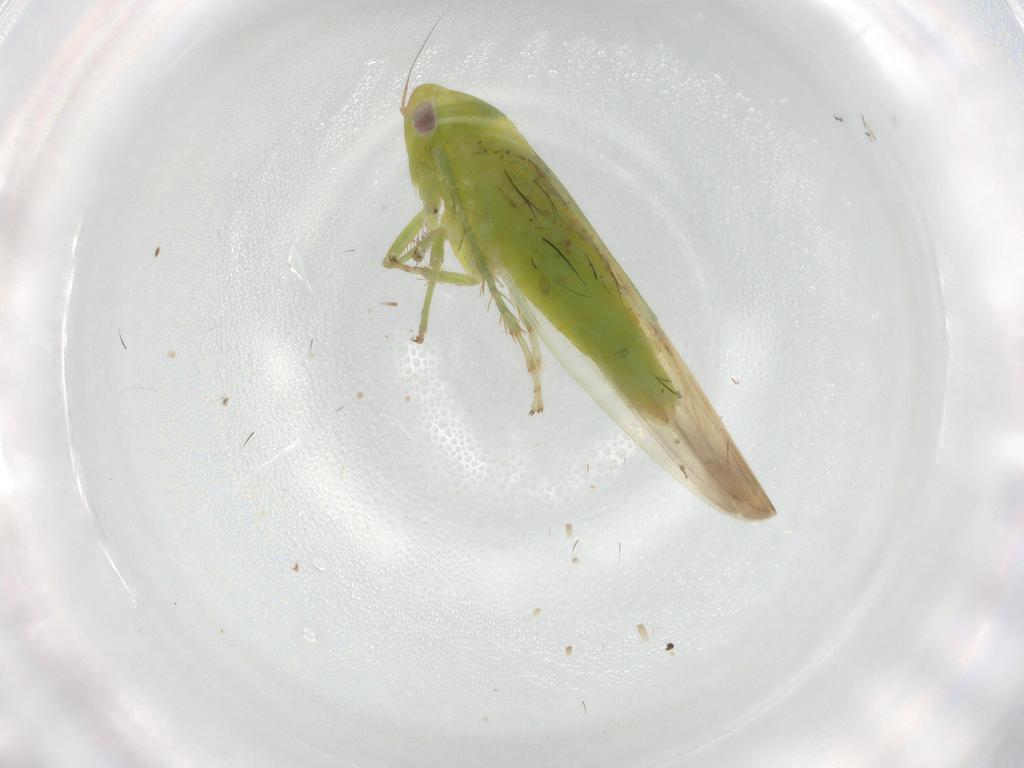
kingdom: Animalia
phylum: Arthropoda
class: Insecta
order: Hemiptera
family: Cicadellidae
